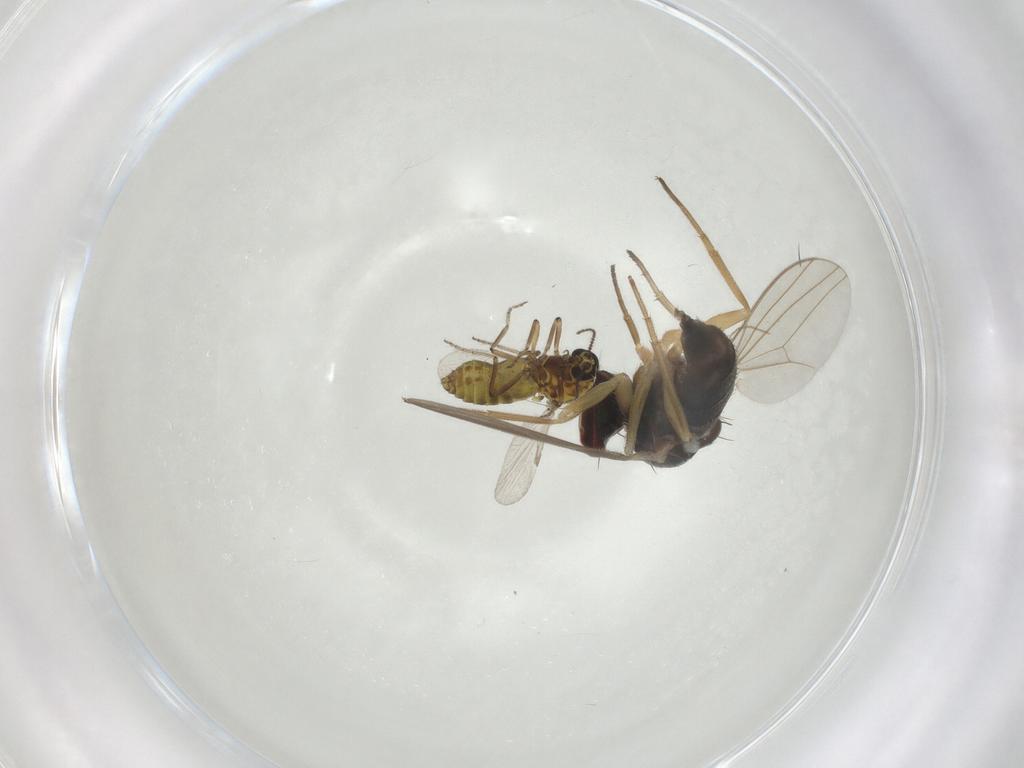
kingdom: Animalia
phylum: Arthropoda
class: Insecta
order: Diptera
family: Ceratopogonidae
